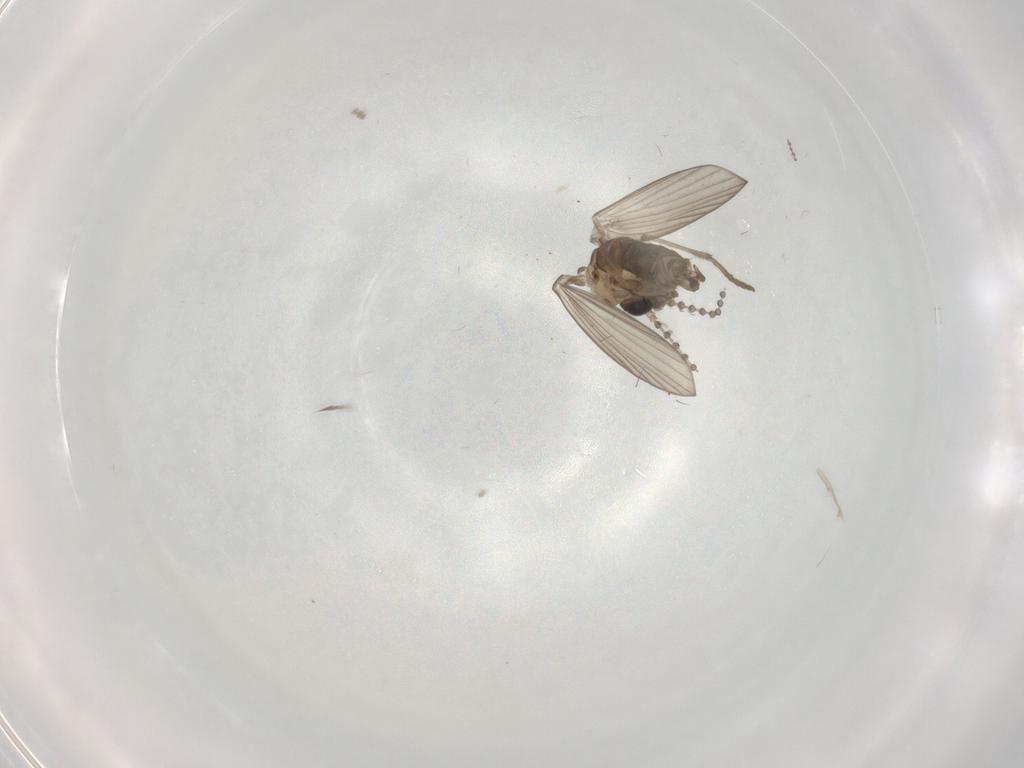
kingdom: Animalia
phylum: Arthropoda
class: Insecta
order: Diptera
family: Psychodidae
